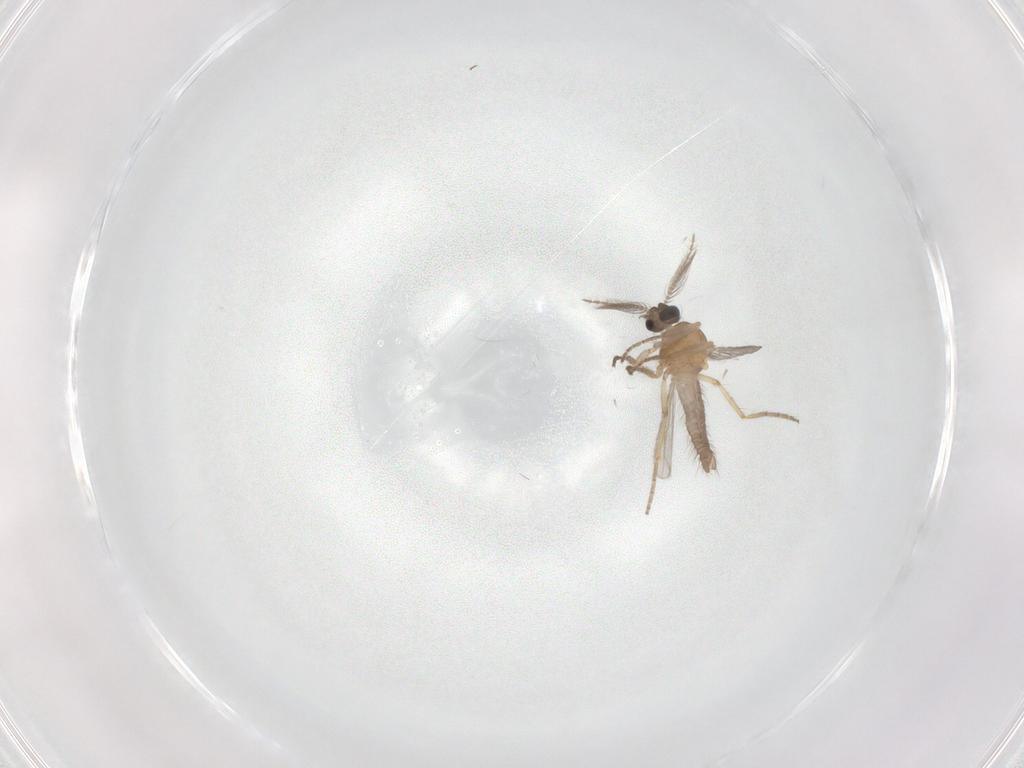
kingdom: Animalia
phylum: Arthropoda
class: Insecta
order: Diptera
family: Ceratopogonidae
